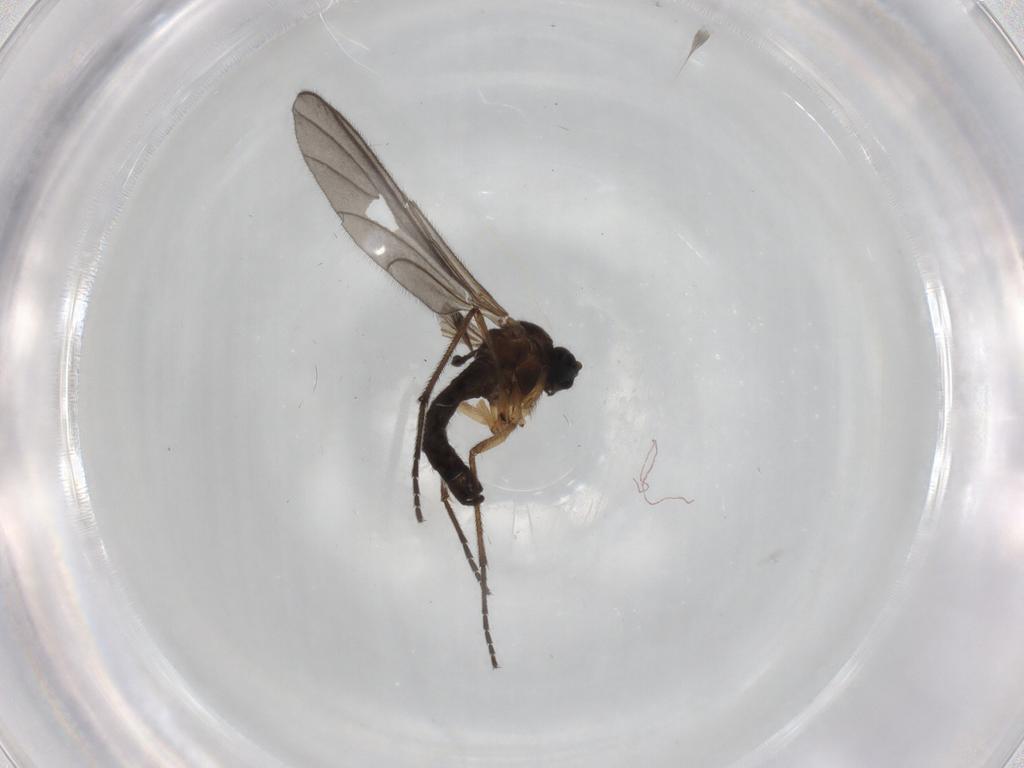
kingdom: Animalia
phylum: Arthropoda
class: Insecta
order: Diptera
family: Sciaridae
